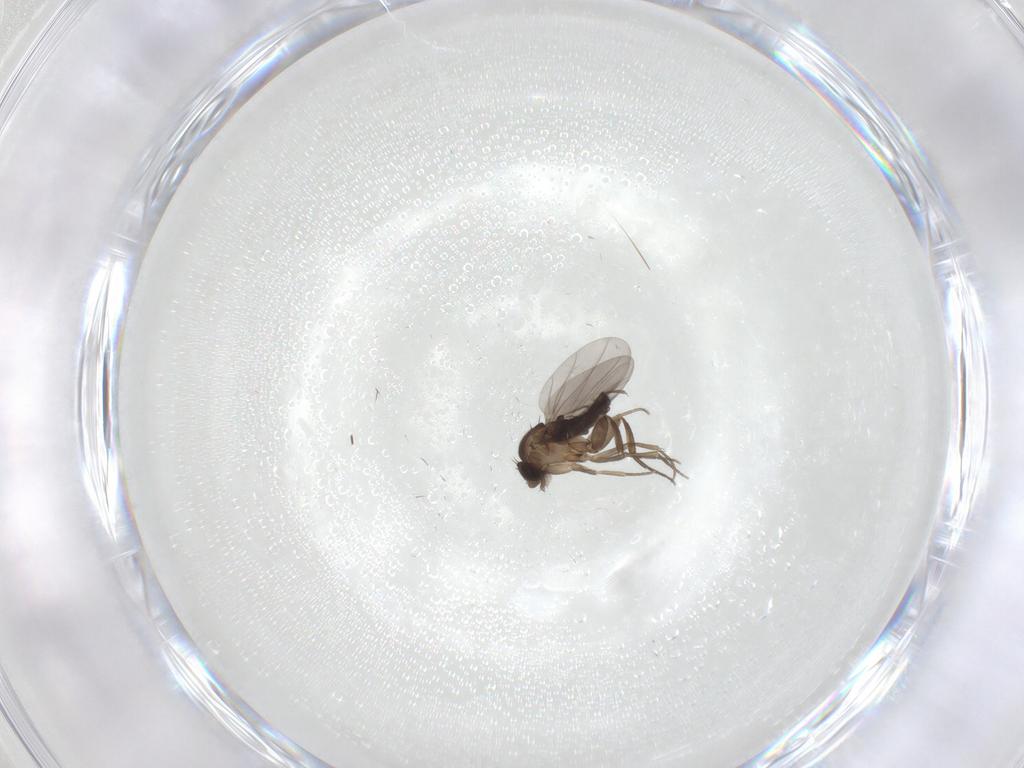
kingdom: Animalia
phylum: Arthropoda
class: Insecta
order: Diptera
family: Phoridae
